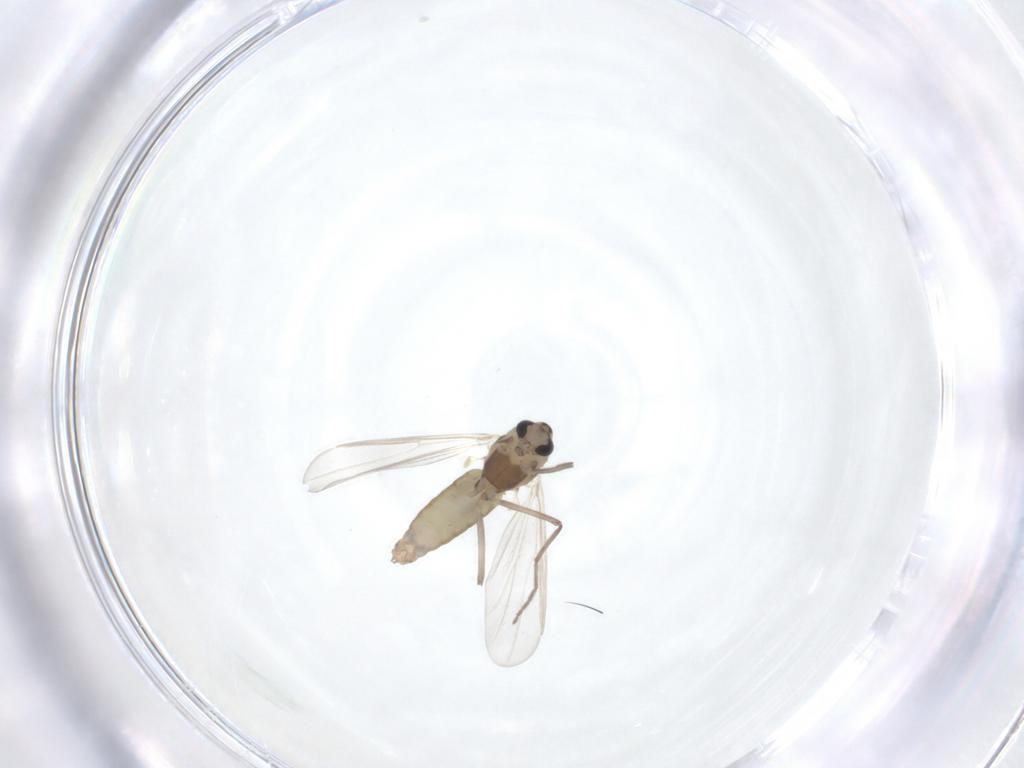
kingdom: Animalia
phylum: Arthropoda
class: Insecta
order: Diptera
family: Chironomidae
